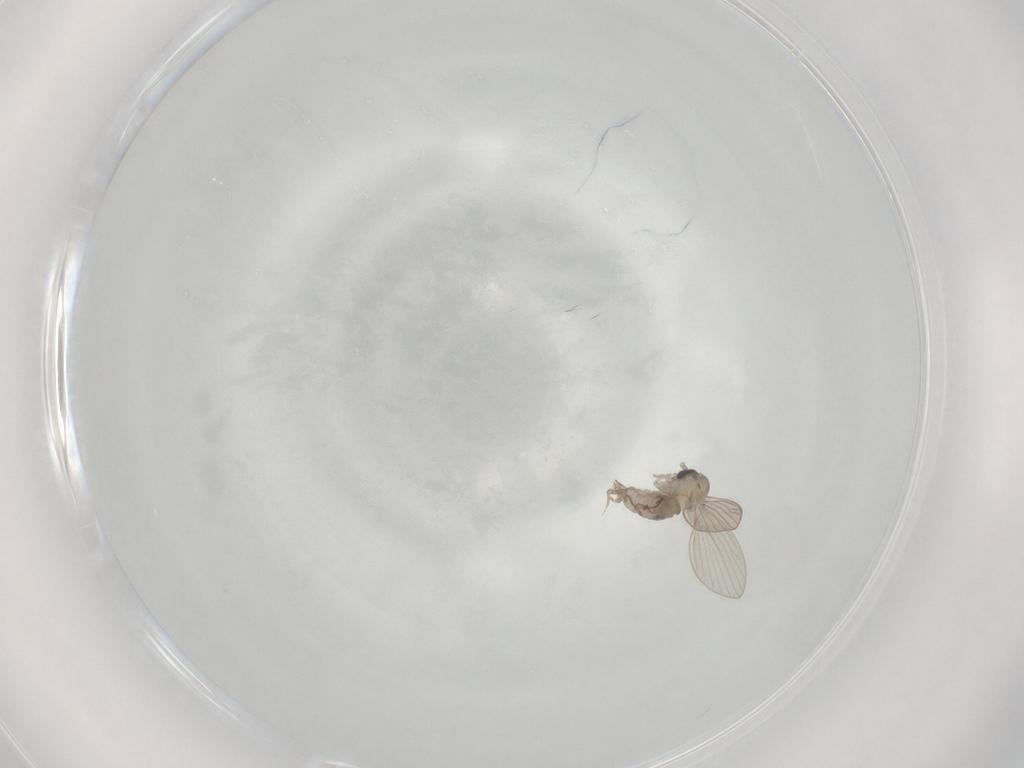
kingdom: Animalia
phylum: Arthropoda
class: Insecta
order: Diptera
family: Psychodidae
